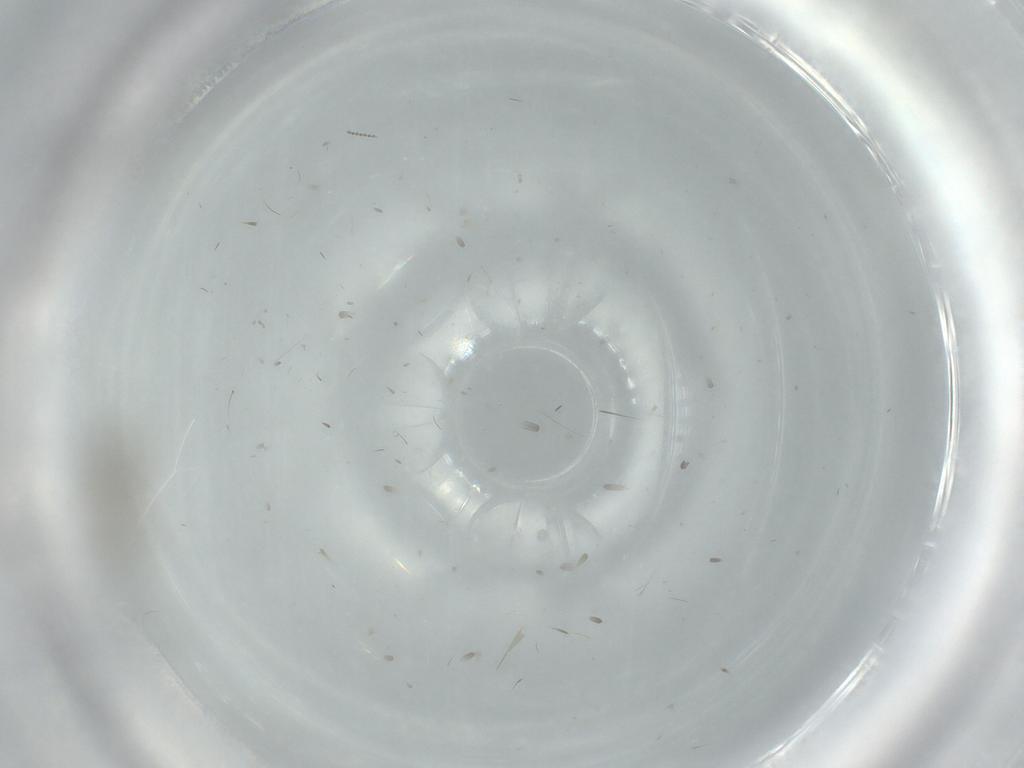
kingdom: Animalia
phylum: Arthropoda
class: Insecta
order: Diptera
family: Phoridae
